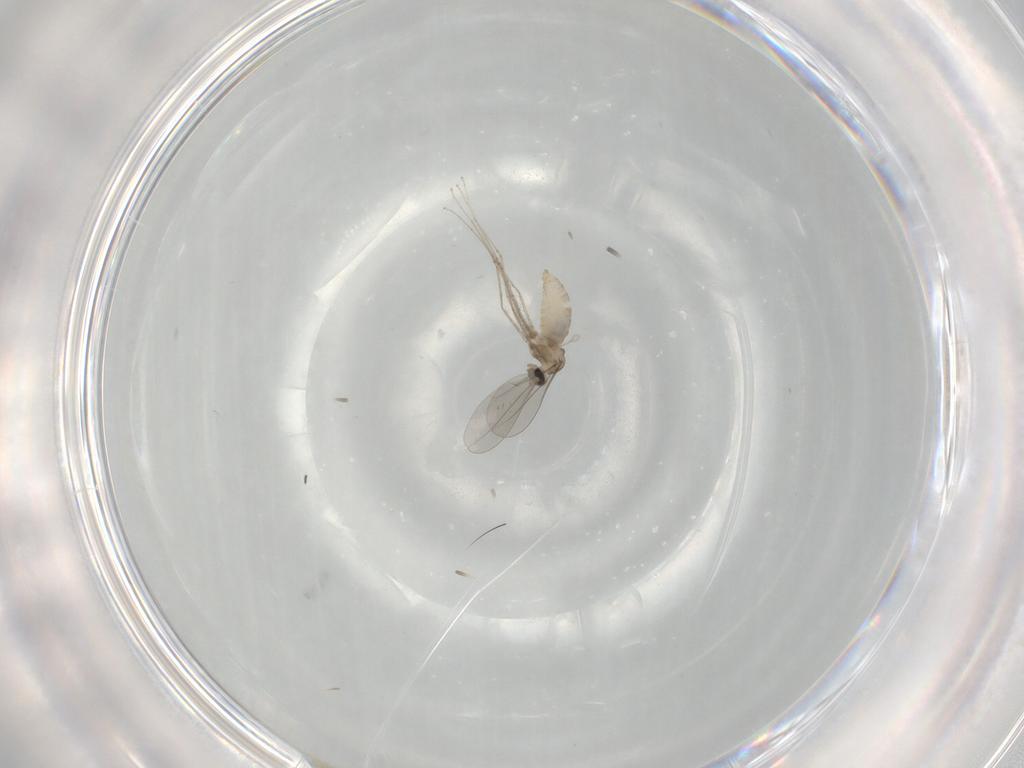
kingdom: Animalia
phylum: Arthropoda
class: Insecta
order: Diptera
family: Cecidomyiidae
